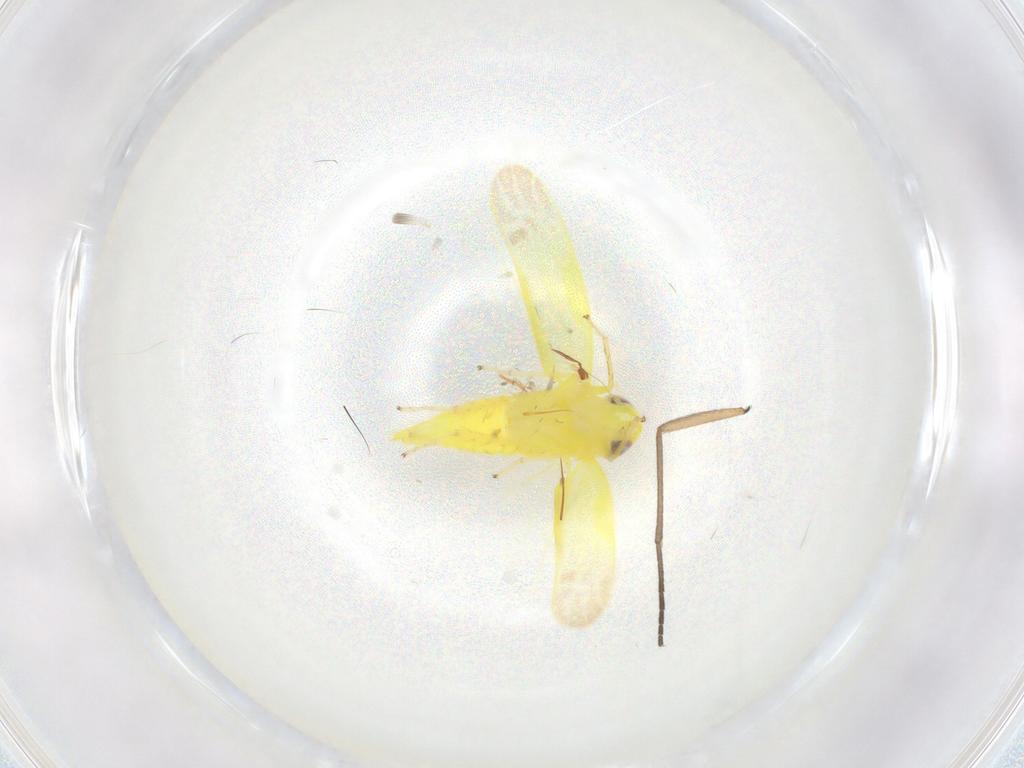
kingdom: Animalia
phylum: Arthropoda
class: Insecta
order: Hemiptera
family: Cicadellidae
